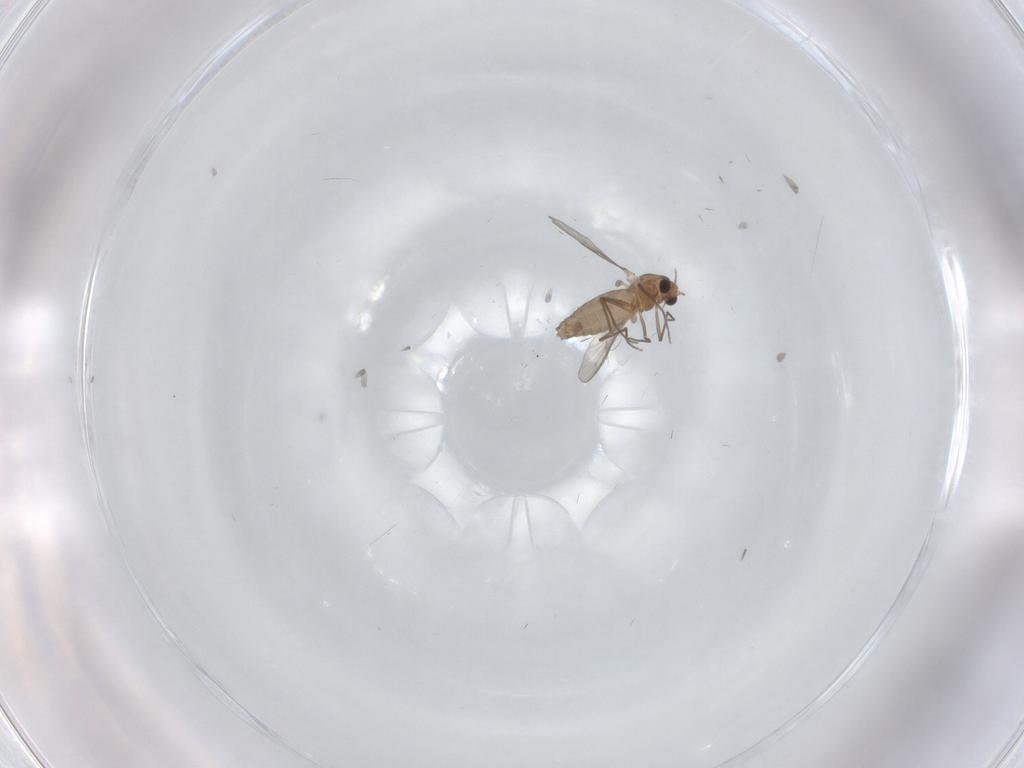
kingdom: Animalia
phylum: Arthropoda
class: Insecta
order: Diptera
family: Chironomidae
